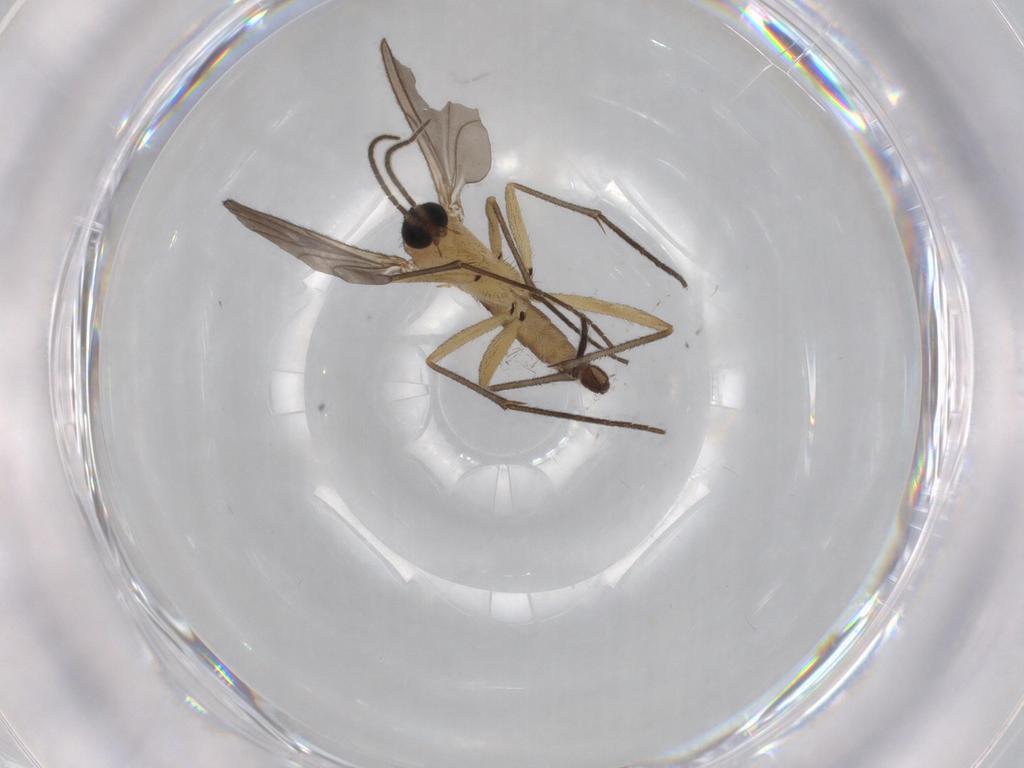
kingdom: Animalia
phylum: Arthropoda
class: Insecta
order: Diptera
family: Sciaridae
